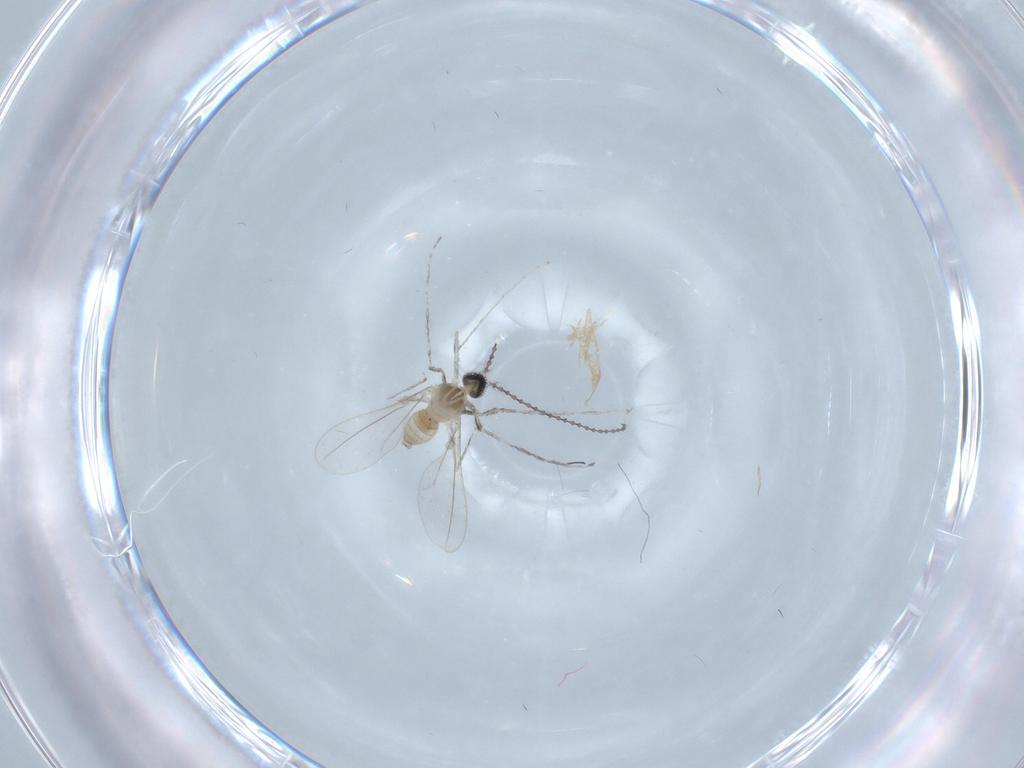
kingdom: Animalia
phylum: Arthropoda
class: Insecta
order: Diptera
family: Cecidomyiidae
